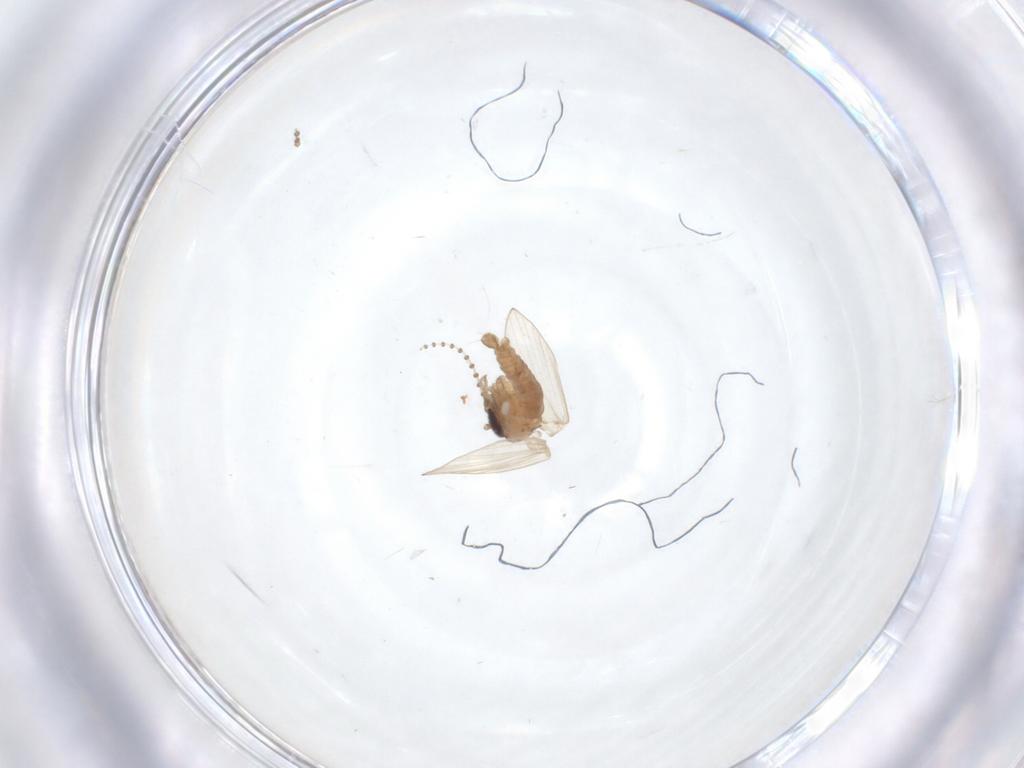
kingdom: Animalia
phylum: Arthropoda
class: Insecta
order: Diptera
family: Psychodidae
